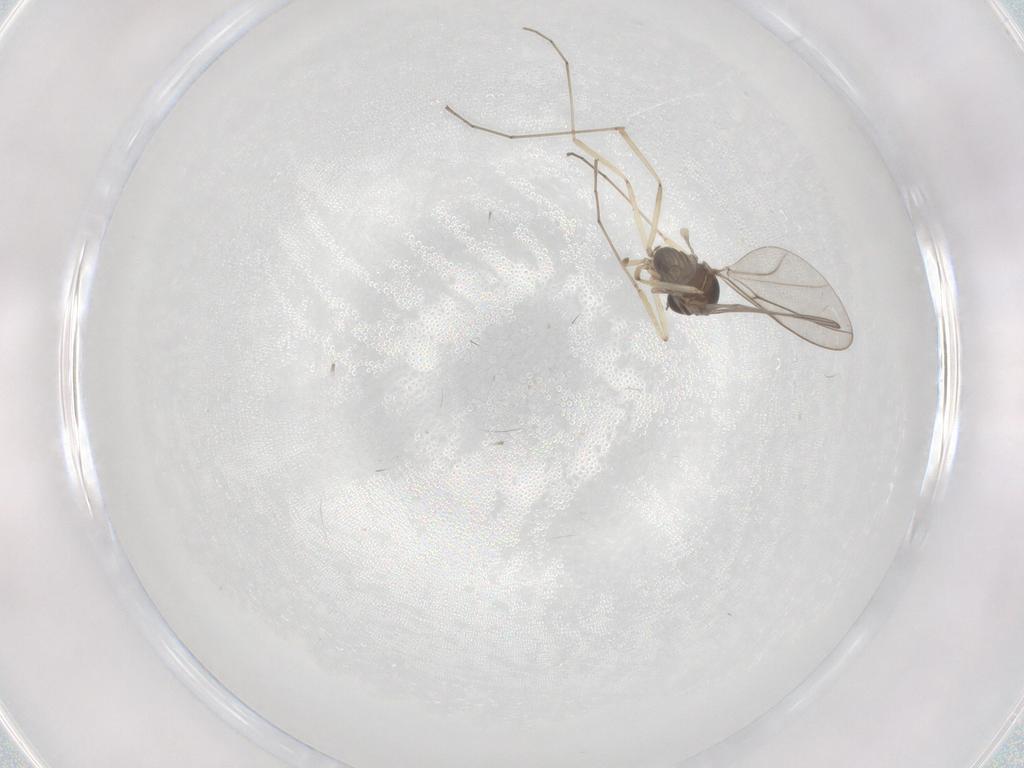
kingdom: Animalia
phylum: Arthropoda
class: Insecta
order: Diptera
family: Cecidomyiidae
